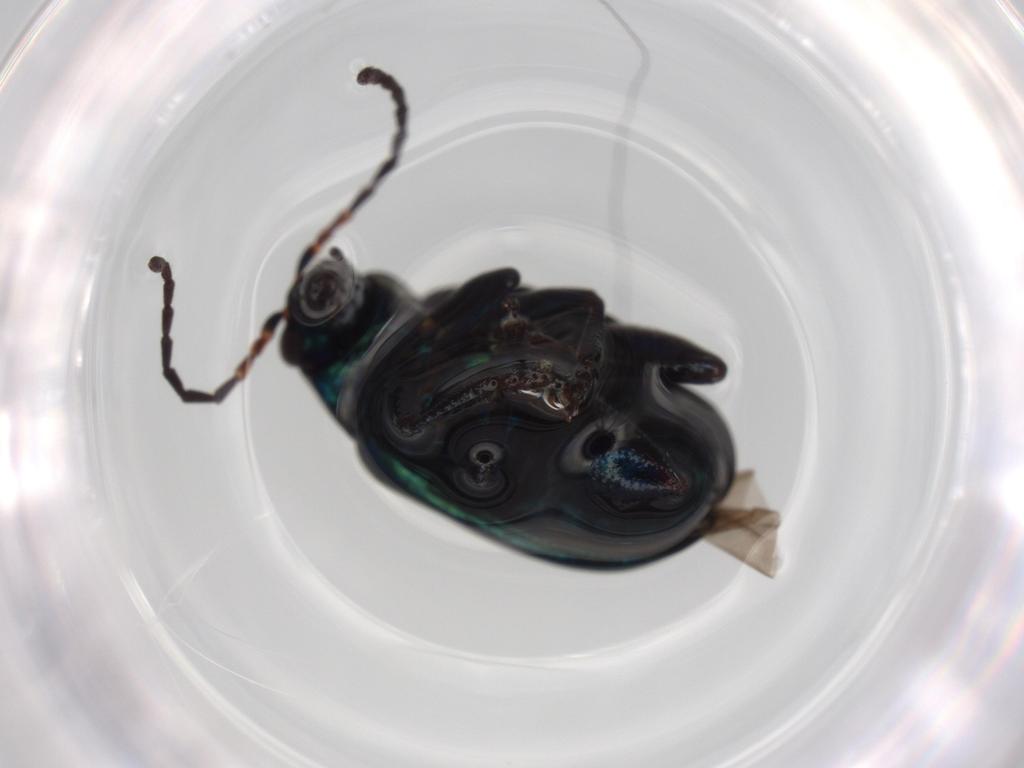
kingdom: Animalia
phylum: Arthropoda
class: Insecta
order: Coleoptera
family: Chrysomelidae
